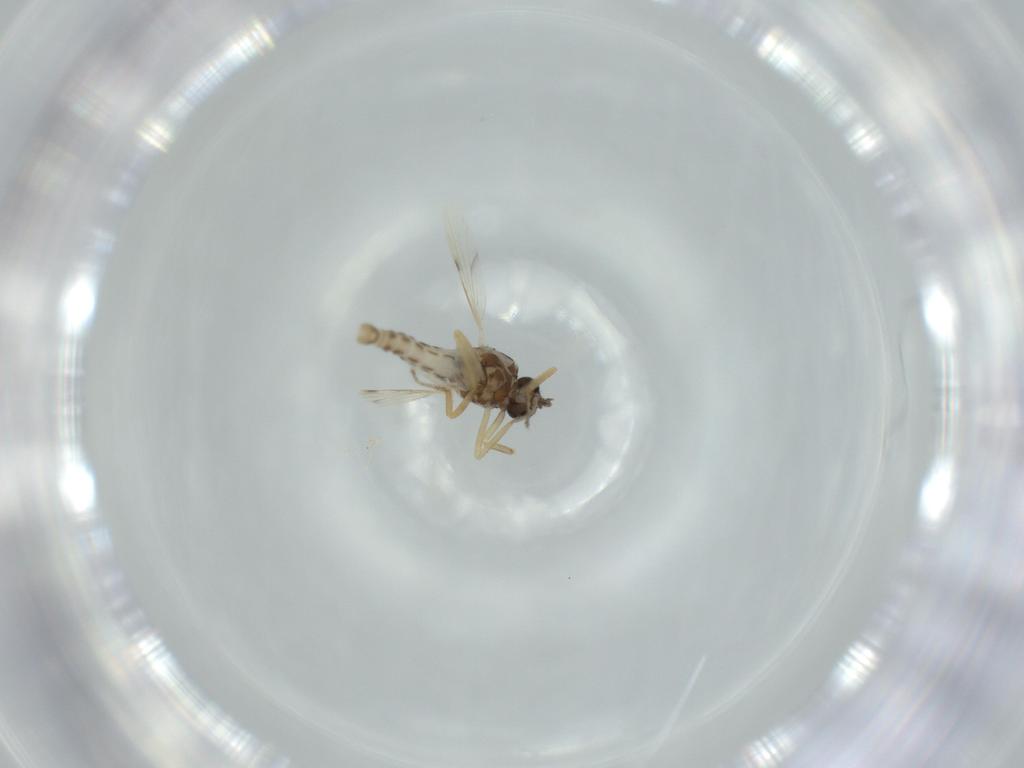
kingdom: Animalia
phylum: Arthropoda
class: Insecta
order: Diptera
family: Ceratopogonidae
